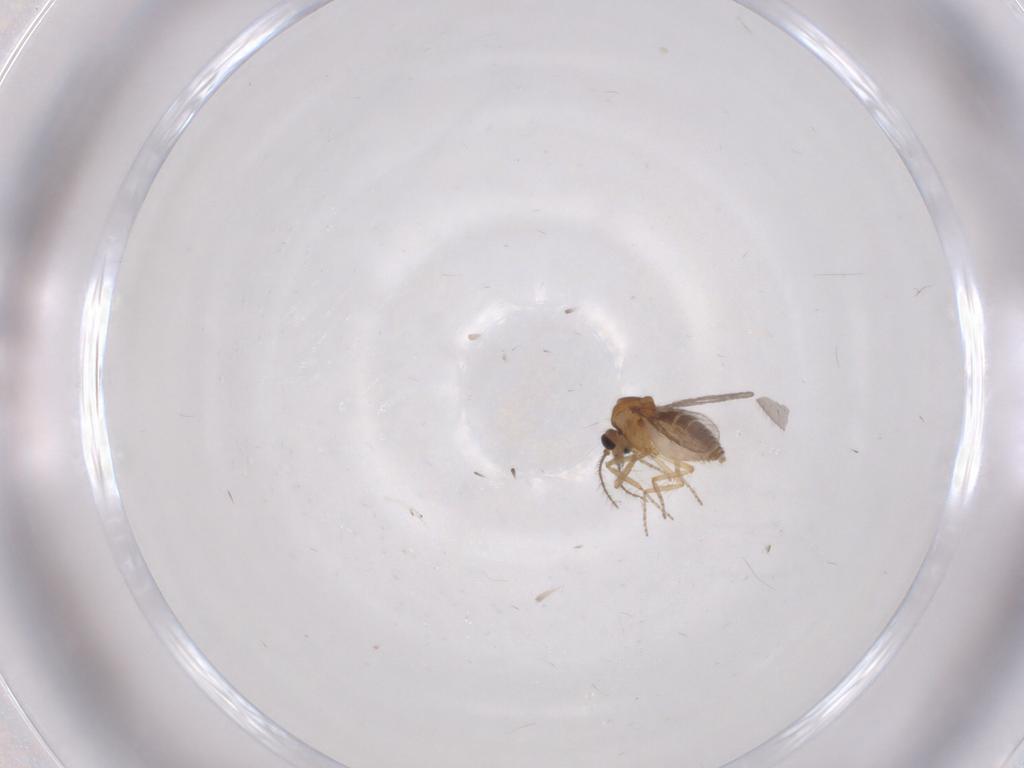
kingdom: Animalia
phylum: Arthropoda
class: Insecta
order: Diptera
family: Ceratopogonidae
